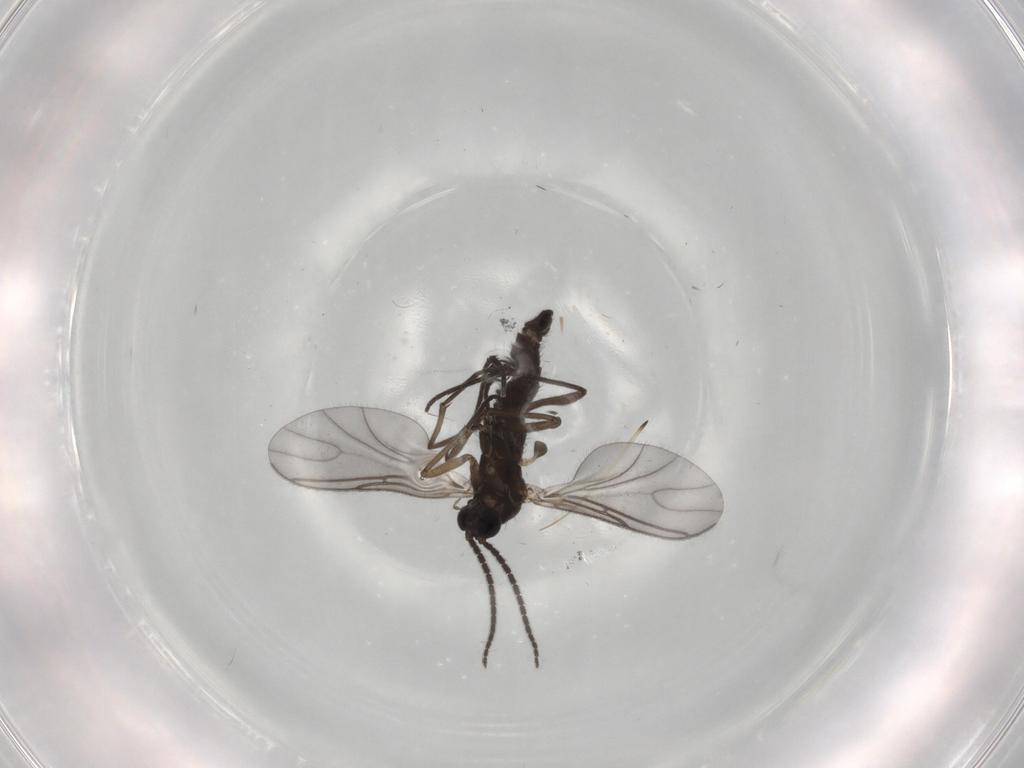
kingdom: Animalia
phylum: Arthropoda
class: Insecta
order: Diptera
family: Sciaridae
